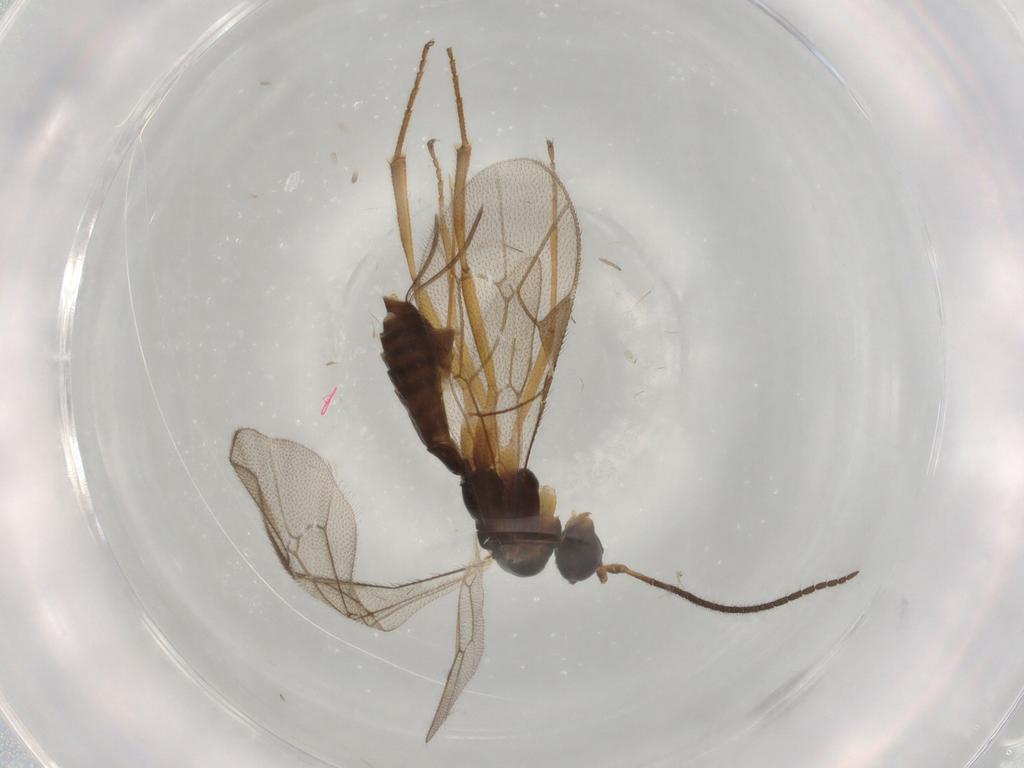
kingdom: Animalia
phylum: Arthropoda
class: Insecta
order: Hymenoptera
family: Ichneumonidae
